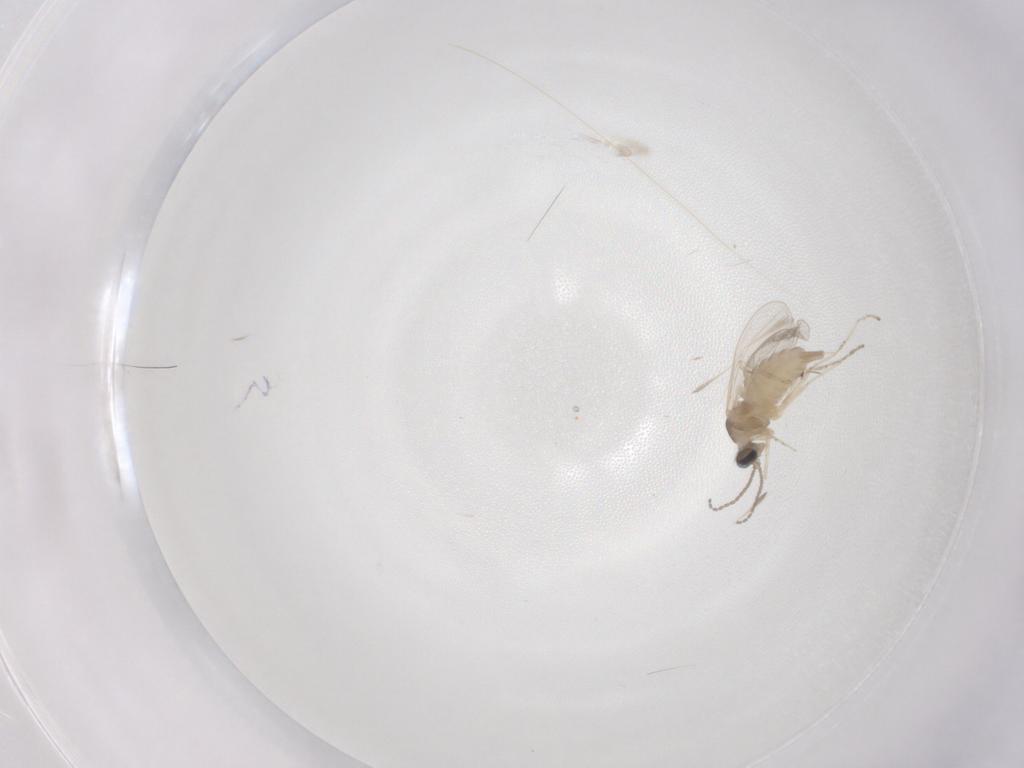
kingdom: Animalia
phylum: Arthropoda
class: Insecta
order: Diptera
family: Cecidomyiidae
